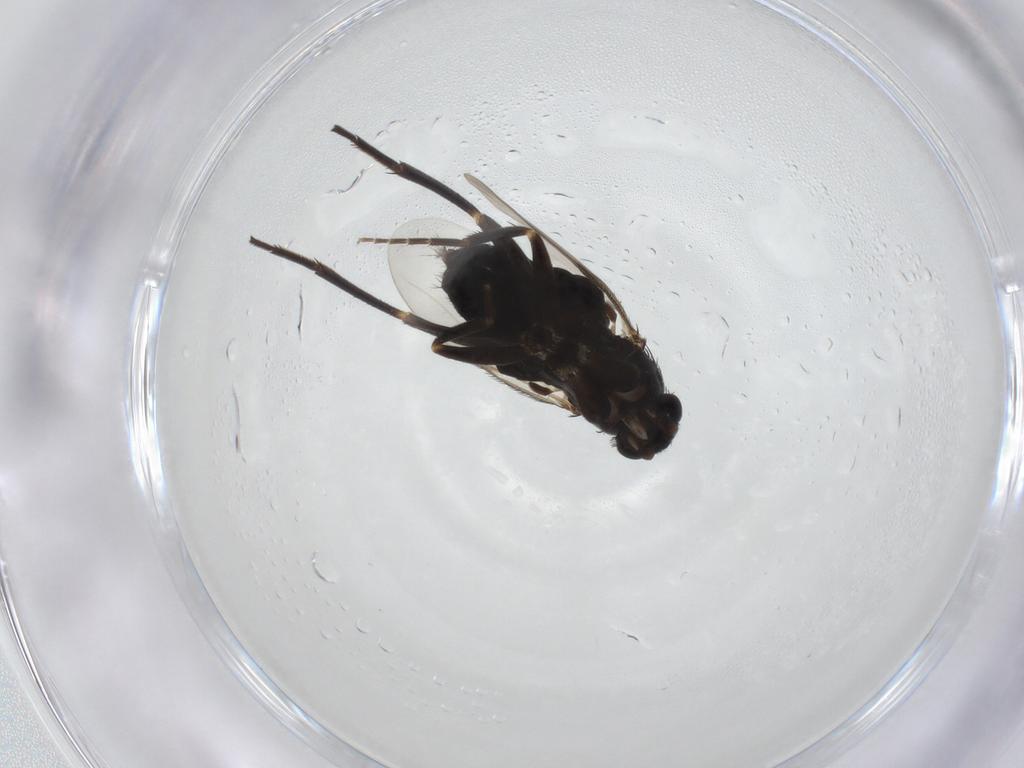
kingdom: Animalia
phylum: Arthropoda
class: Insecta
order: Diptera
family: Phoridae
